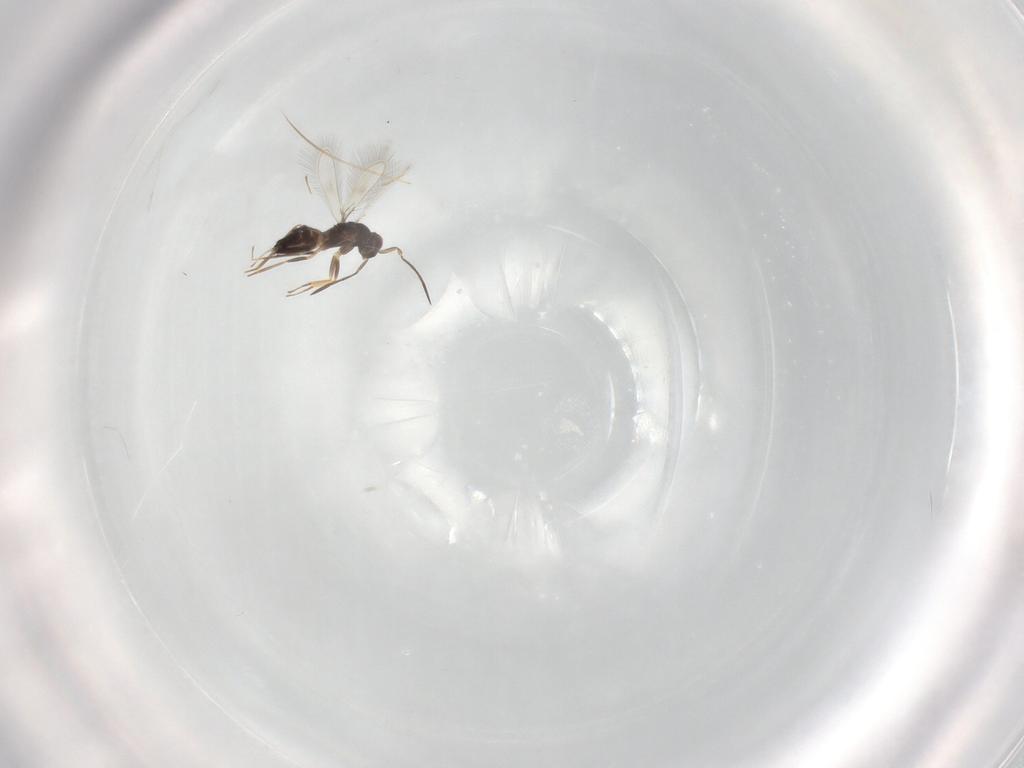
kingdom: Animalia
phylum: Arthropoda
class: Insecta
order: Hymenoptera
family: Mymaridae
